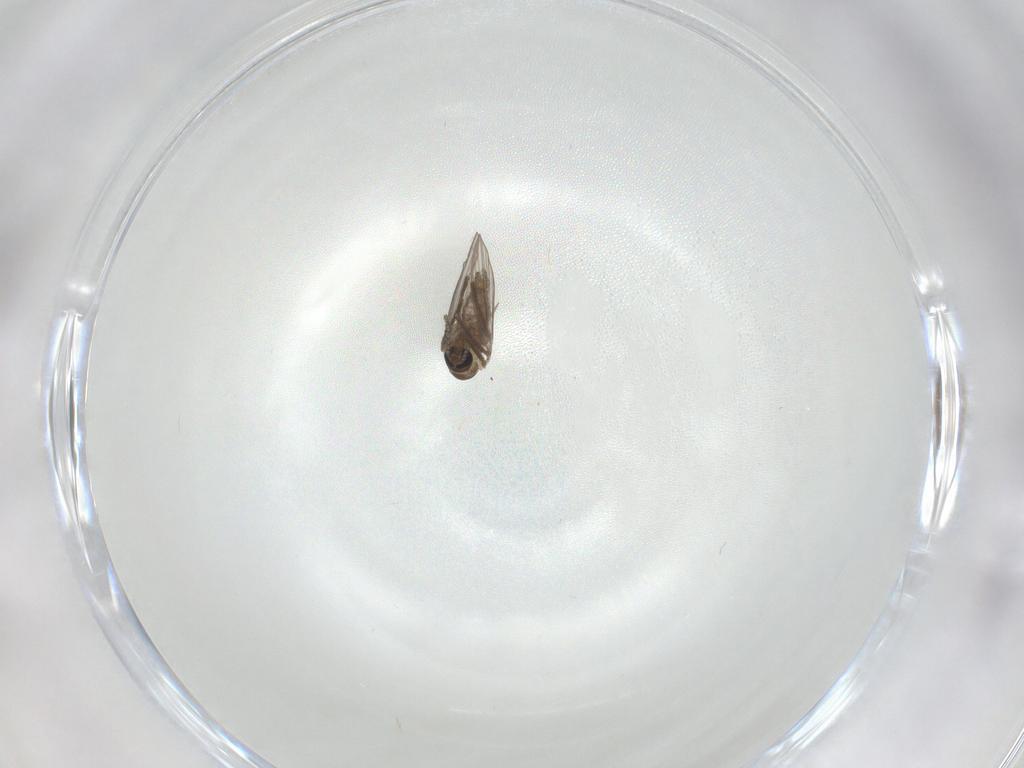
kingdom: Animalia
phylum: Arthropoda
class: Insecta
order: Diptera
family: Psychodidae
